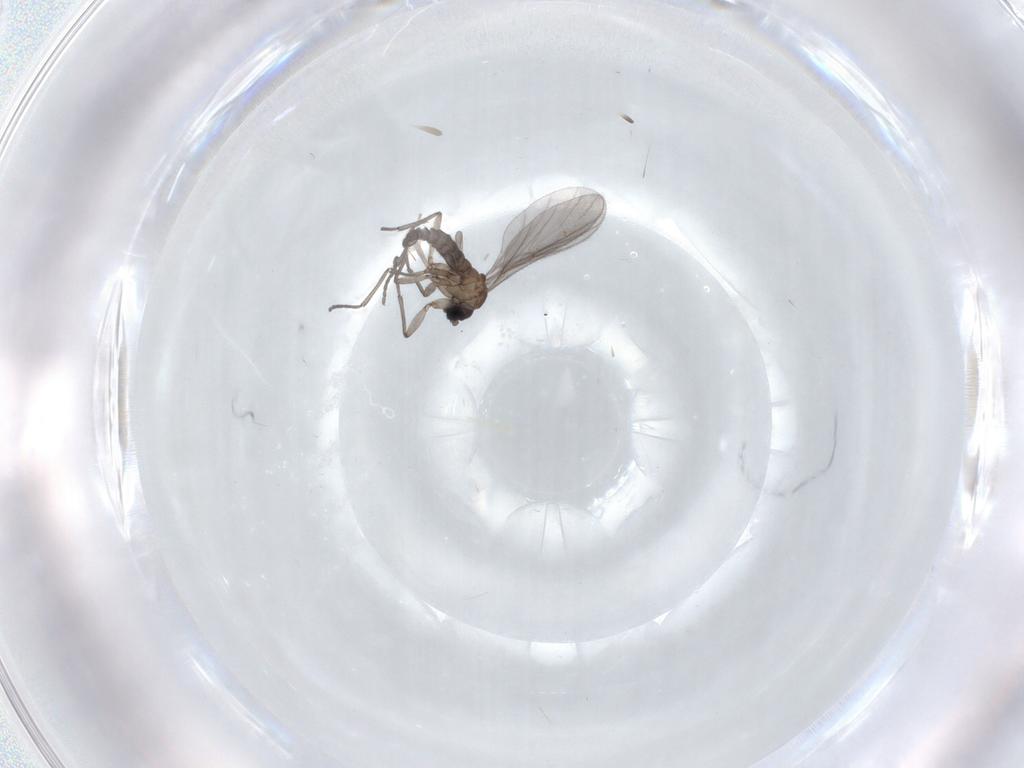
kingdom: Animalia
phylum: Arthropoda
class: Insecta
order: Diptera
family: Sciaridae
